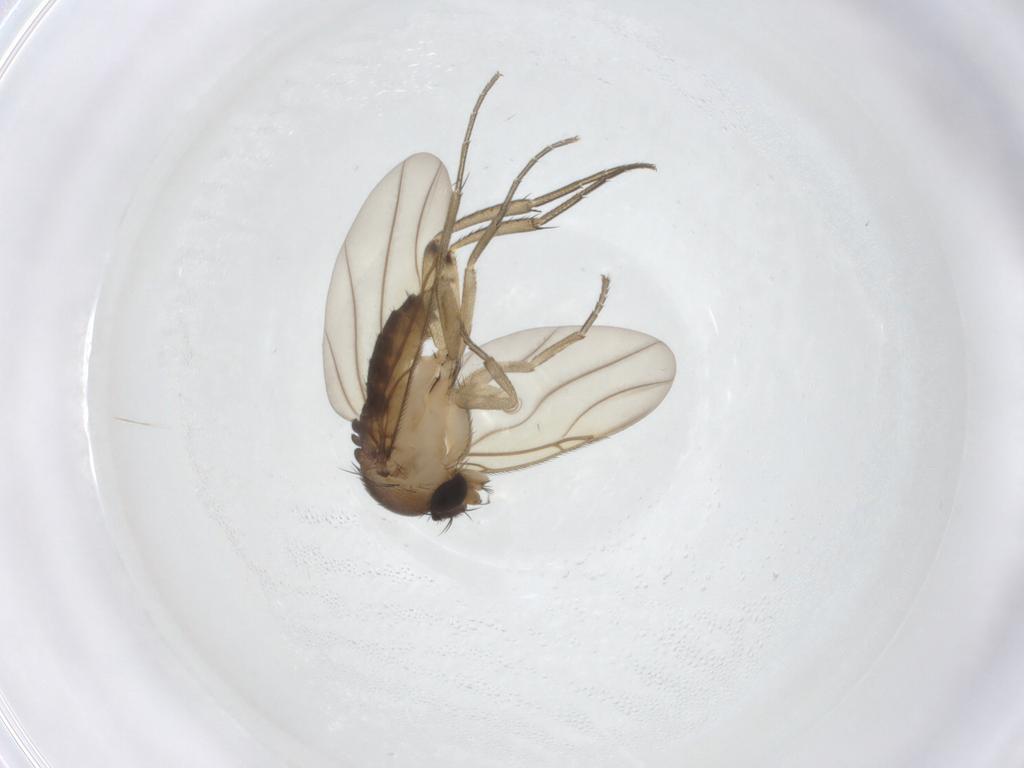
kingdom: Animalia
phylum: Arthropoda
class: Insecta
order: Diptera
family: Phoridae
